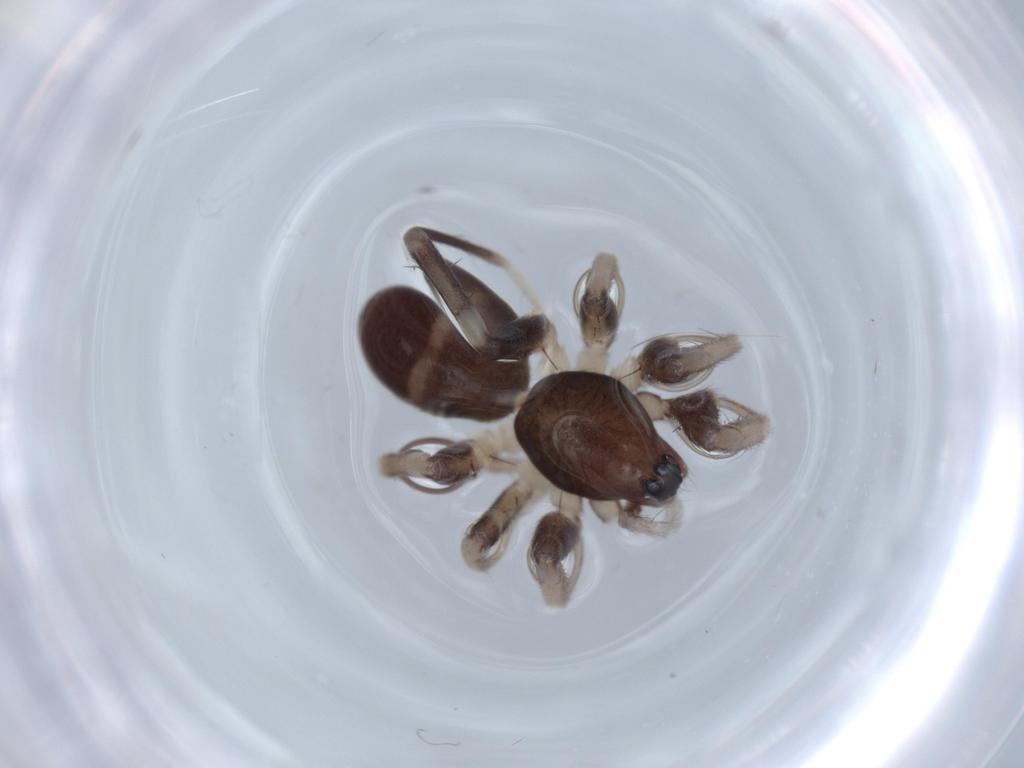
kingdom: Animalia
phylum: Arthropoda
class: Arachnida
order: Araneae
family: Corinnidae
